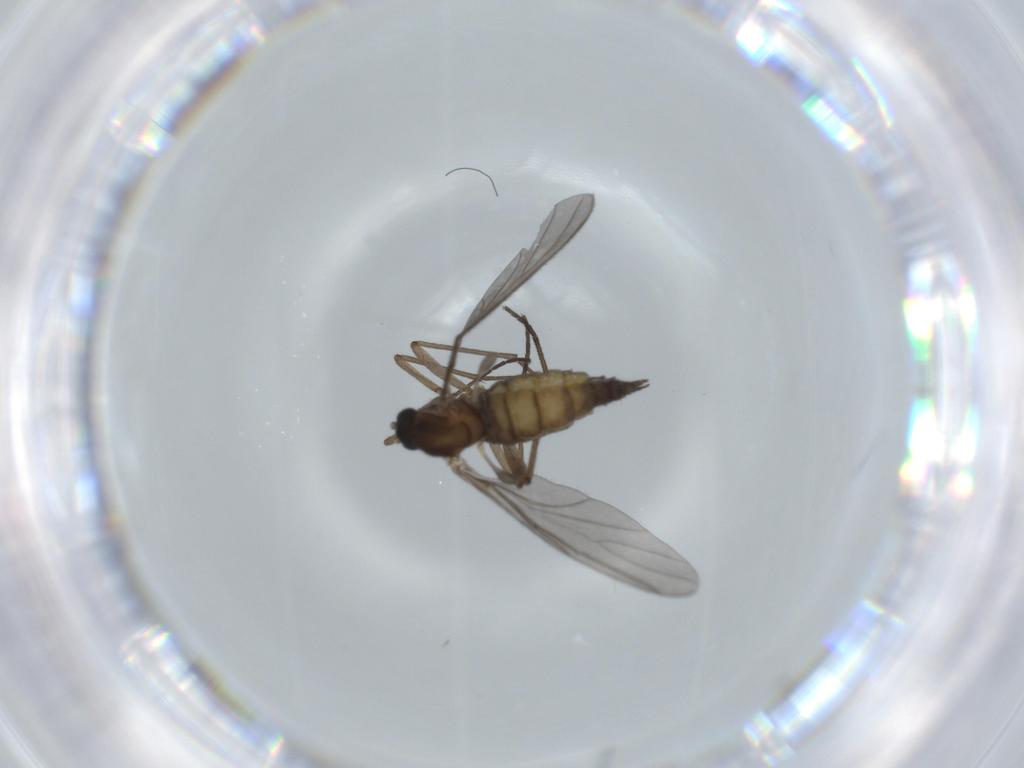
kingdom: Animalia
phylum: Arthropoda
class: Insecta
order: Diptera
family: Sciaridae
